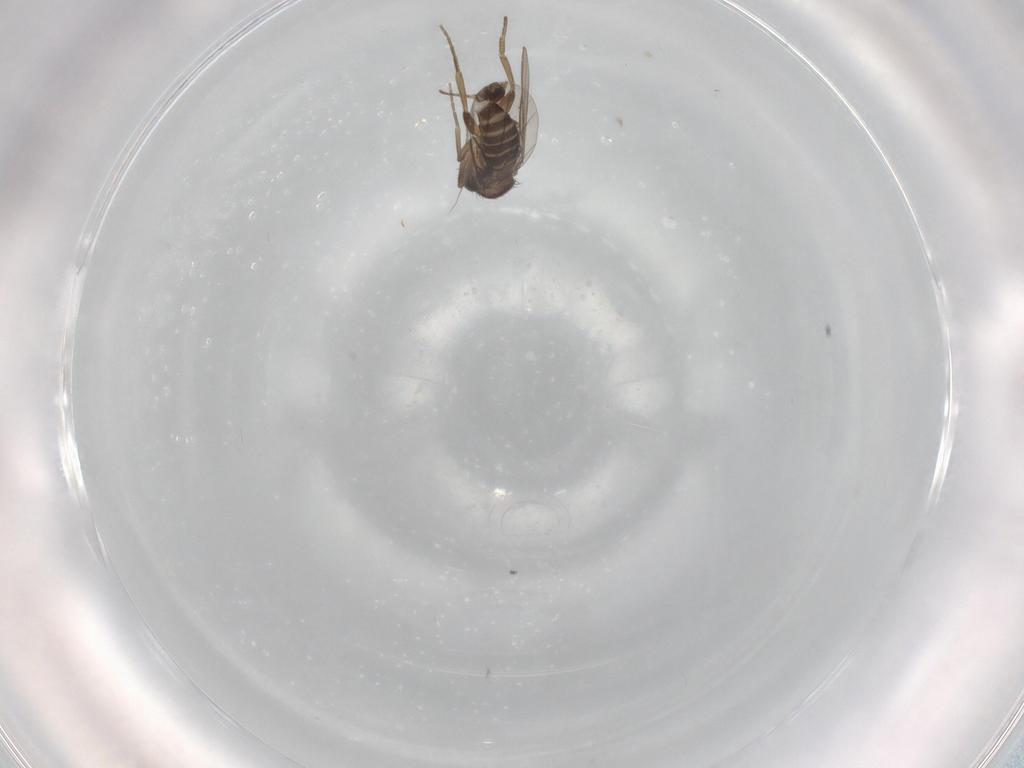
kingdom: Animalia
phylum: Arthropoda
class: Insecta
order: Diptera
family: Phoridae
